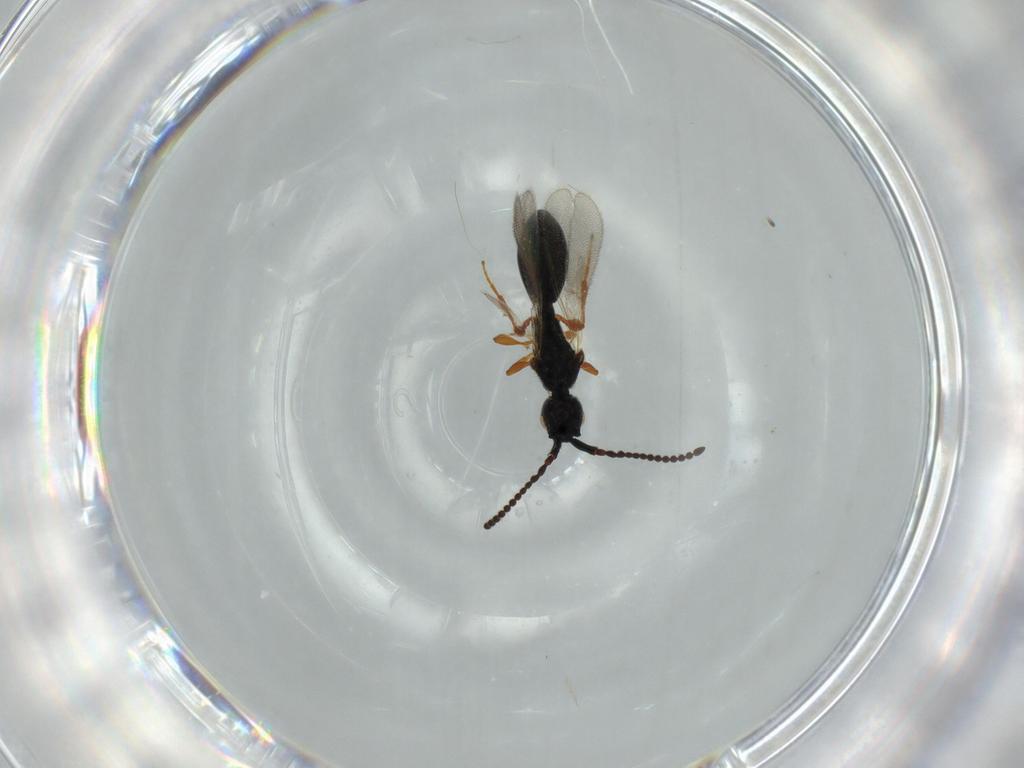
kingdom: Animalia
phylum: Arthropoda
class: Insecta
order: Hymenoptera
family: Diapriidae
